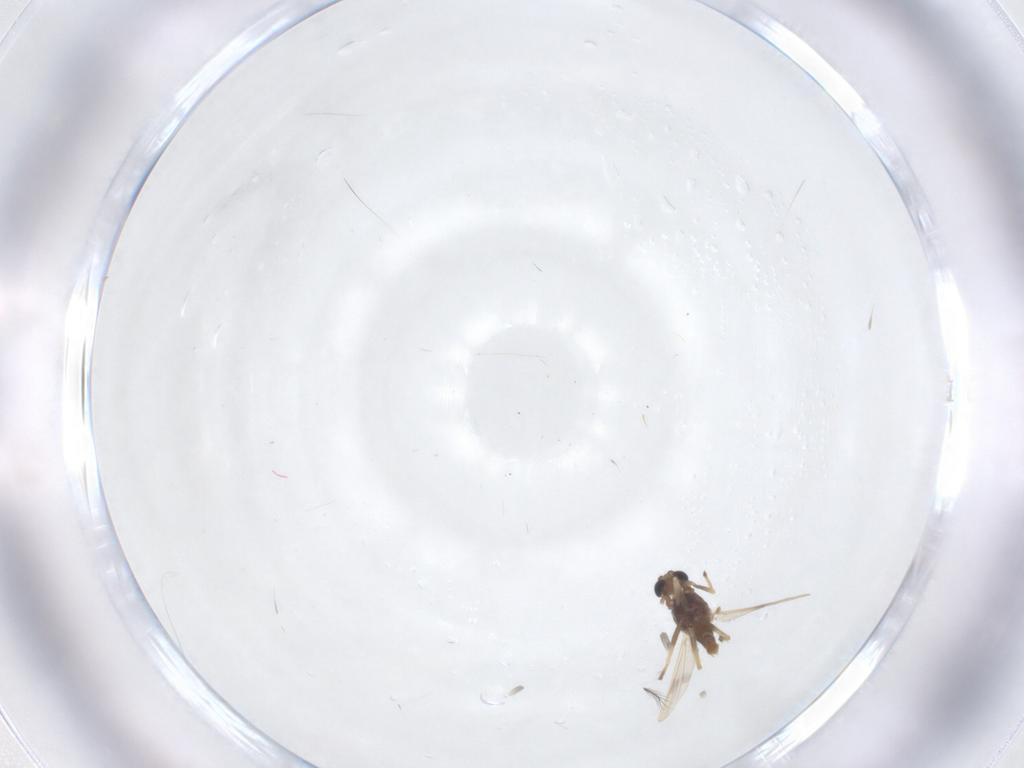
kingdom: Animalia
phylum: Arthropoda
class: Insecta
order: Diptera
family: Chironomidae
